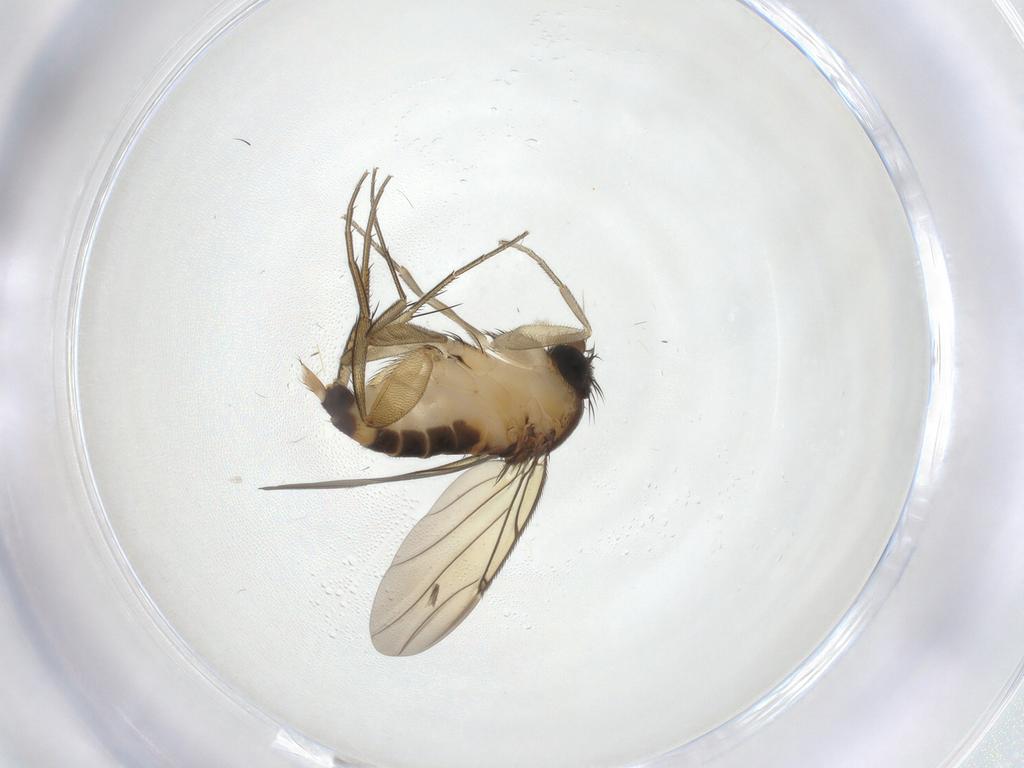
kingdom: Animalia
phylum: Arthropoda
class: Insecta
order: Diptera
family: Phoridae
